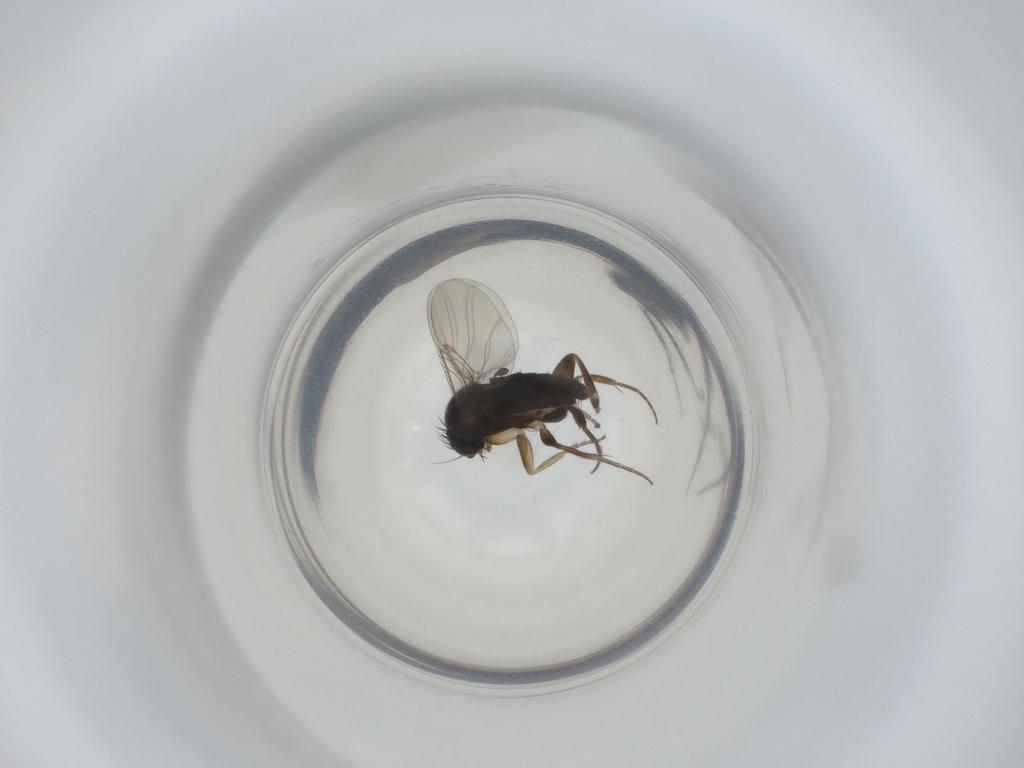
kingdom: Animalia
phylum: Arthropoda
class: Insecta
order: Diptera
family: Phoridae
